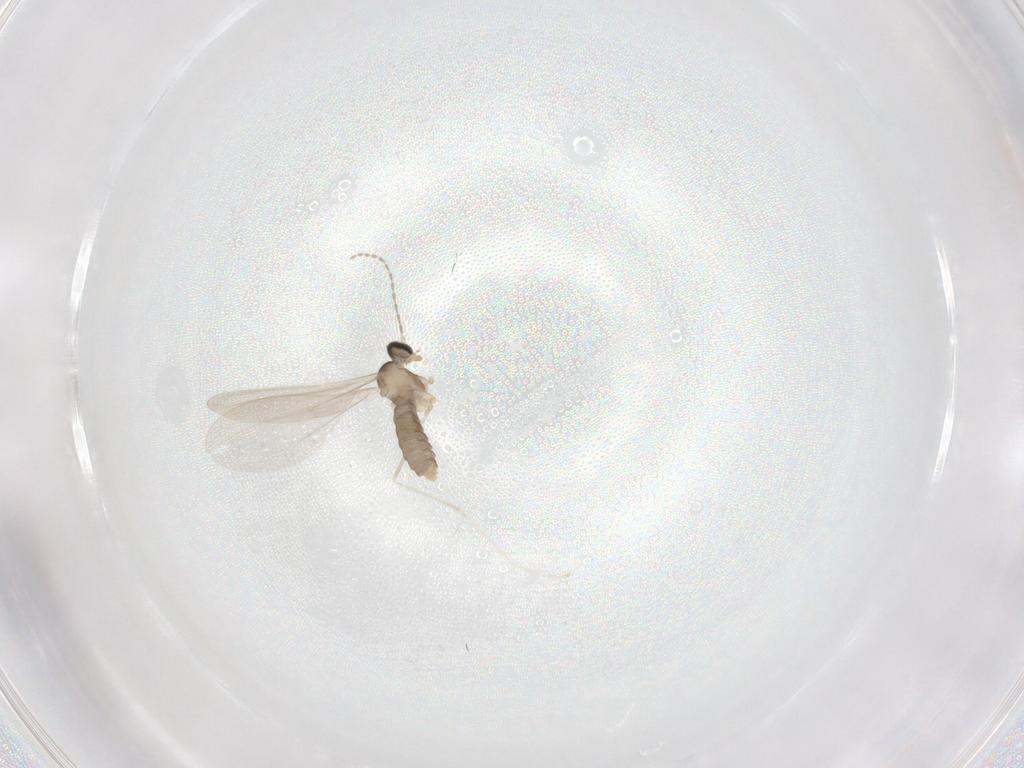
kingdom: Animalia
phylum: Arthropoda
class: Insecta
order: Diptera
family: Cecidomyiidae
